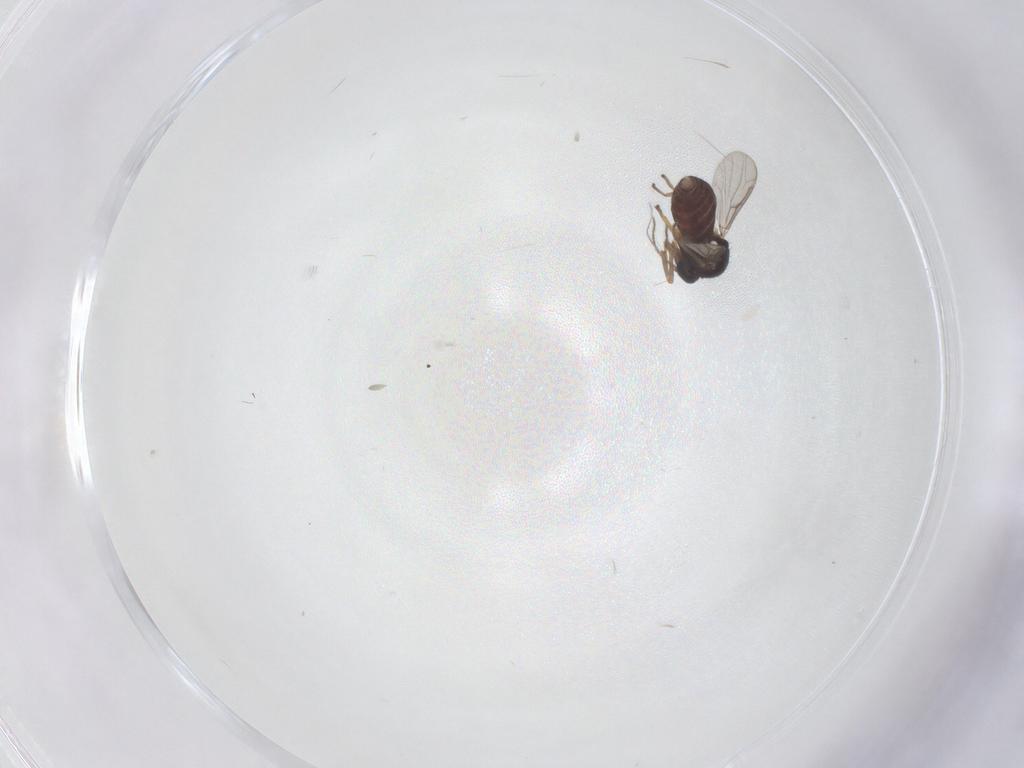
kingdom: Animalia
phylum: Arthropoda
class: Insecta
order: Diptera
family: Ceratopogonidae
